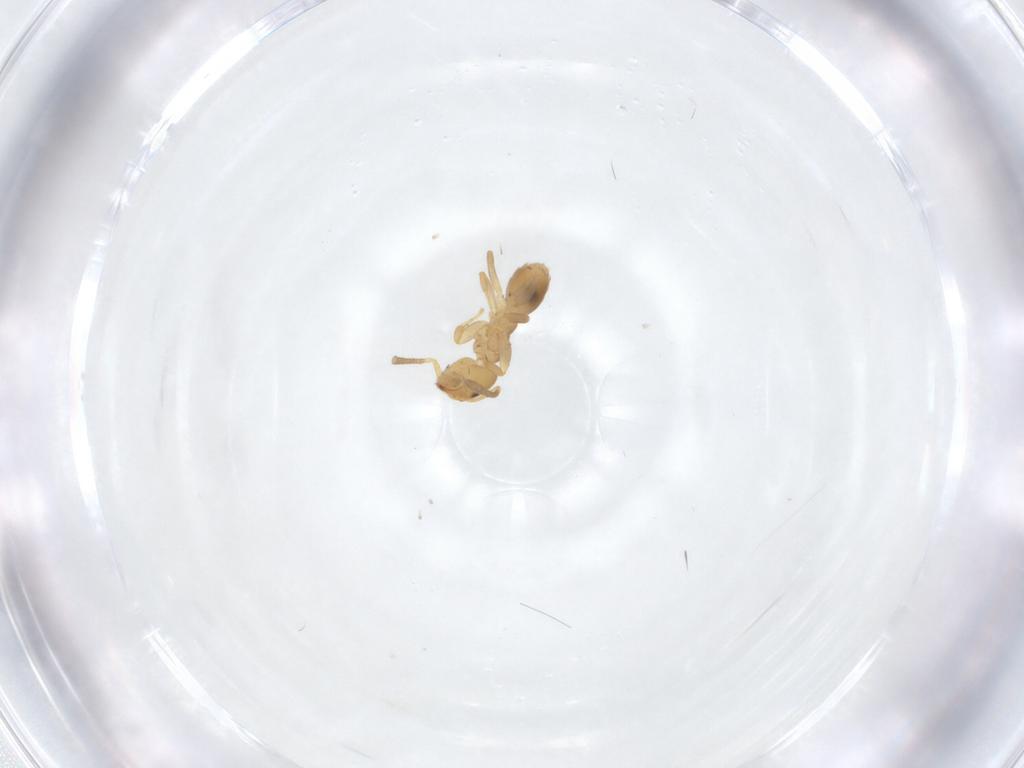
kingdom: Animalia
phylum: Arthropoda
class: Insecta
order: Hymenoptera
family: Formicidae
